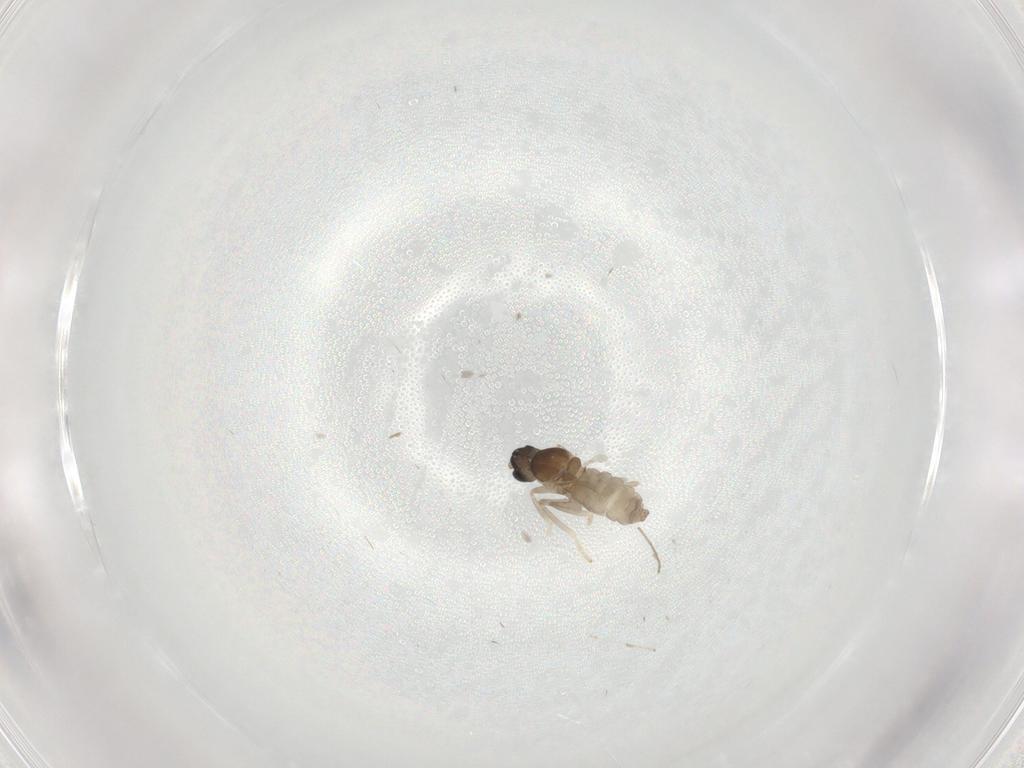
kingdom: Animalia
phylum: Arthropoda
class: Insecta
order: Diptera
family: Cecidomyiidae
